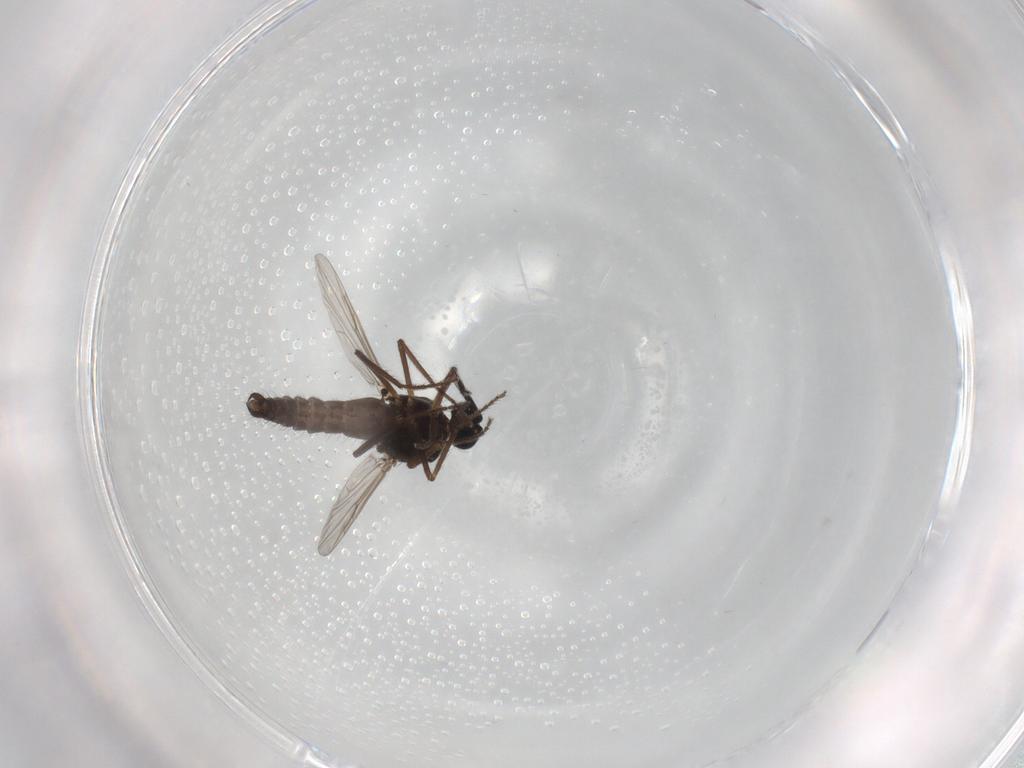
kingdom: Animalia
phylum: Arthropoda
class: Insecta
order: Diptera
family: Ceratopogonidae
